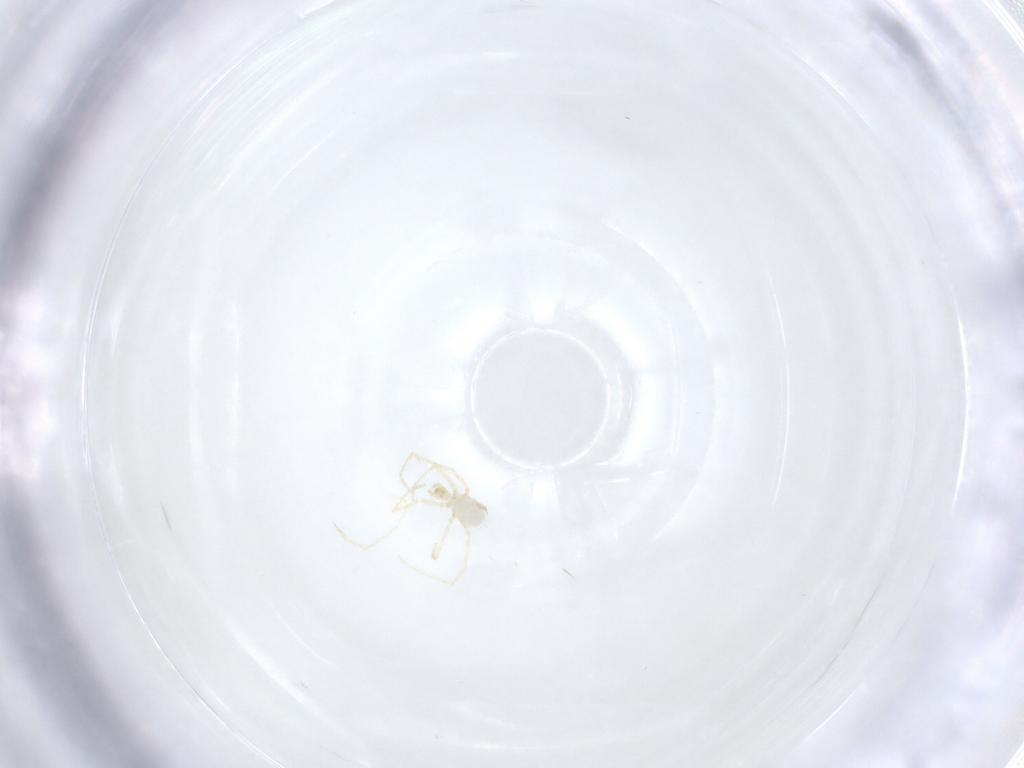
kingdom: Animalia
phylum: Arthropoda
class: Arachnida
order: Trombidiformes
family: Erythraeidae
